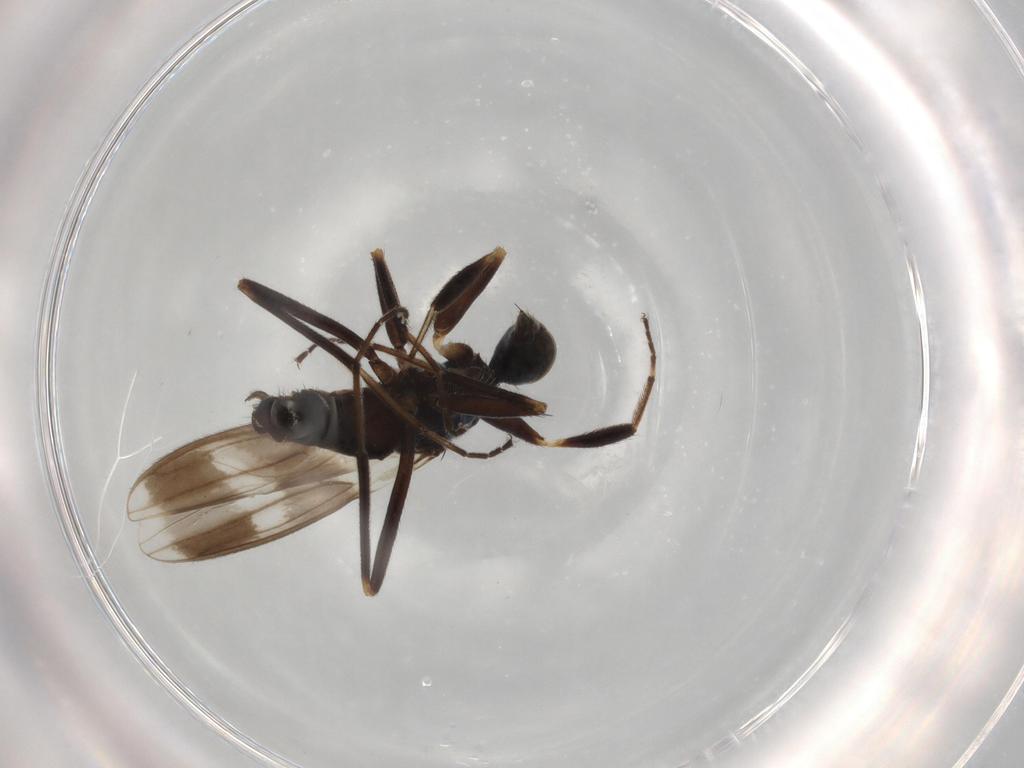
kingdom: Animalia
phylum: Arthropoda
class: Insecta
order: Diptera
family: Hybotidae
